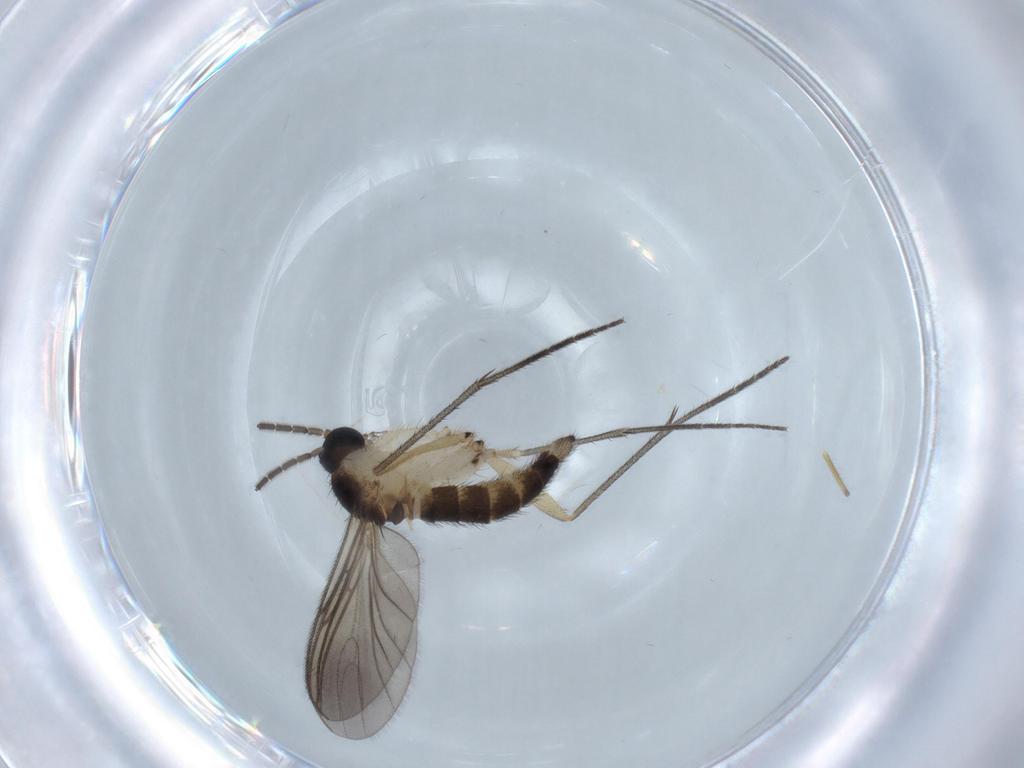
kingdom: Animalia
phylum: Arthropoda
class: Insecta
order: Diptera
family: Sciaridae
